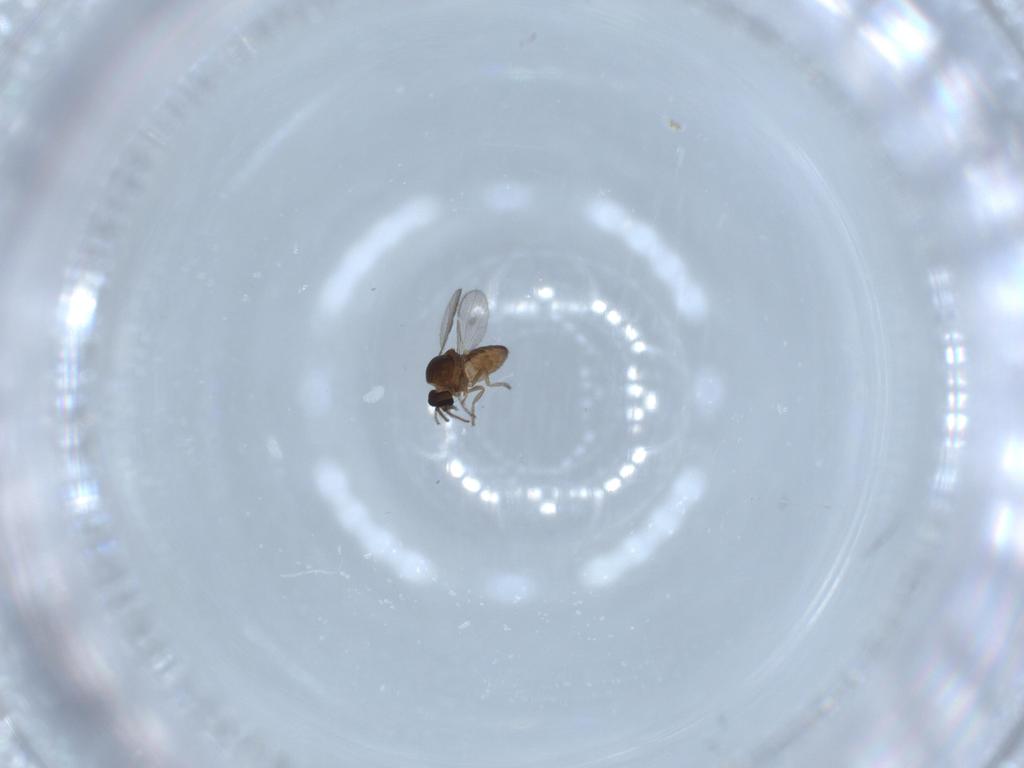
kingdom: Animalia
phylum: Arthropoda
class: Insecta
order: Diptera
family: Ceratopogonidae
